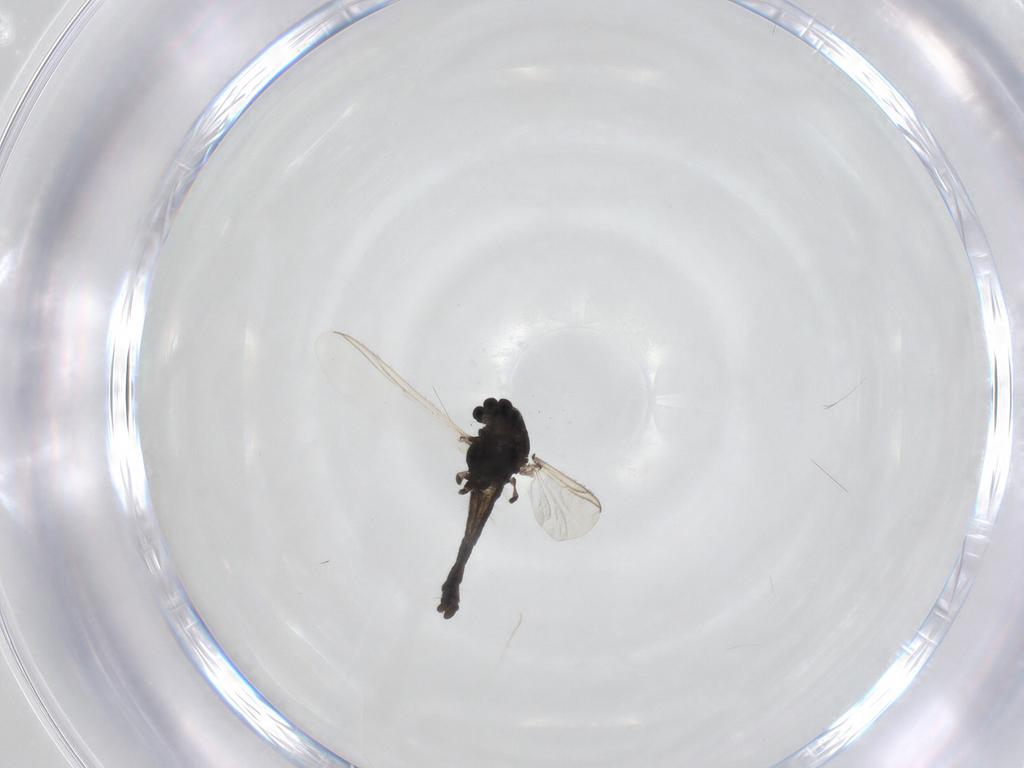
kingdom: Animalia
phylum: Arthropoda
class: Insecta
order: Diptera
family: Chironomidae
